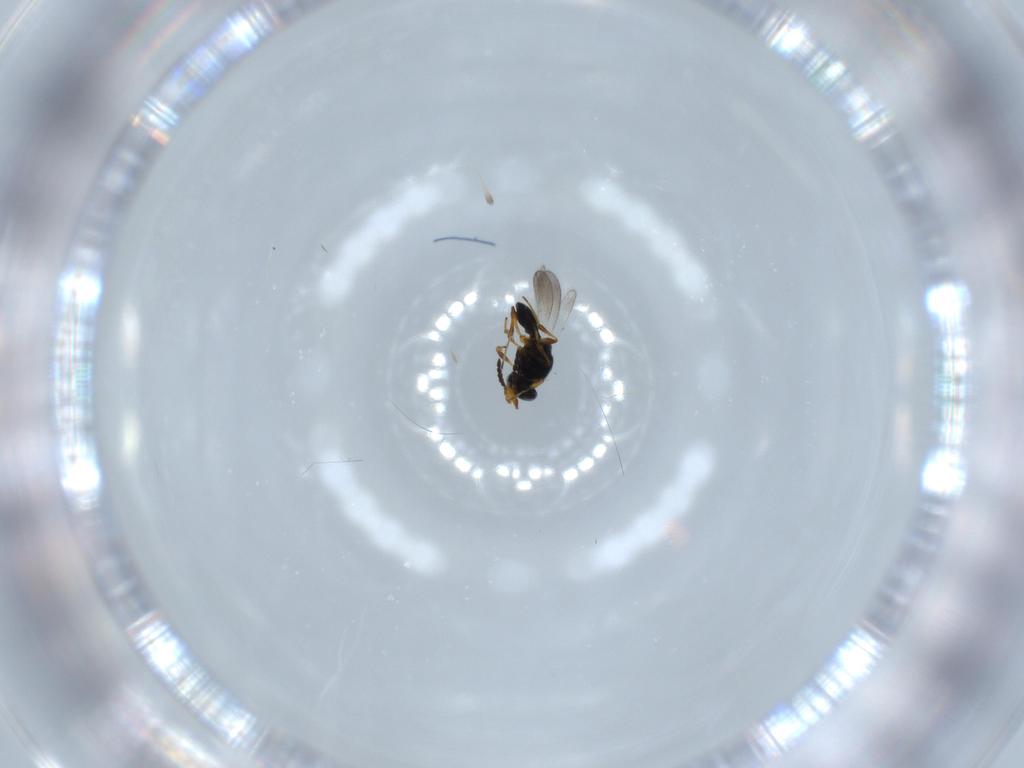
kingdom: Animalia
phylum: Arthropoda
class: Insecta
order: Hymenoptera
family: Platygastridae
